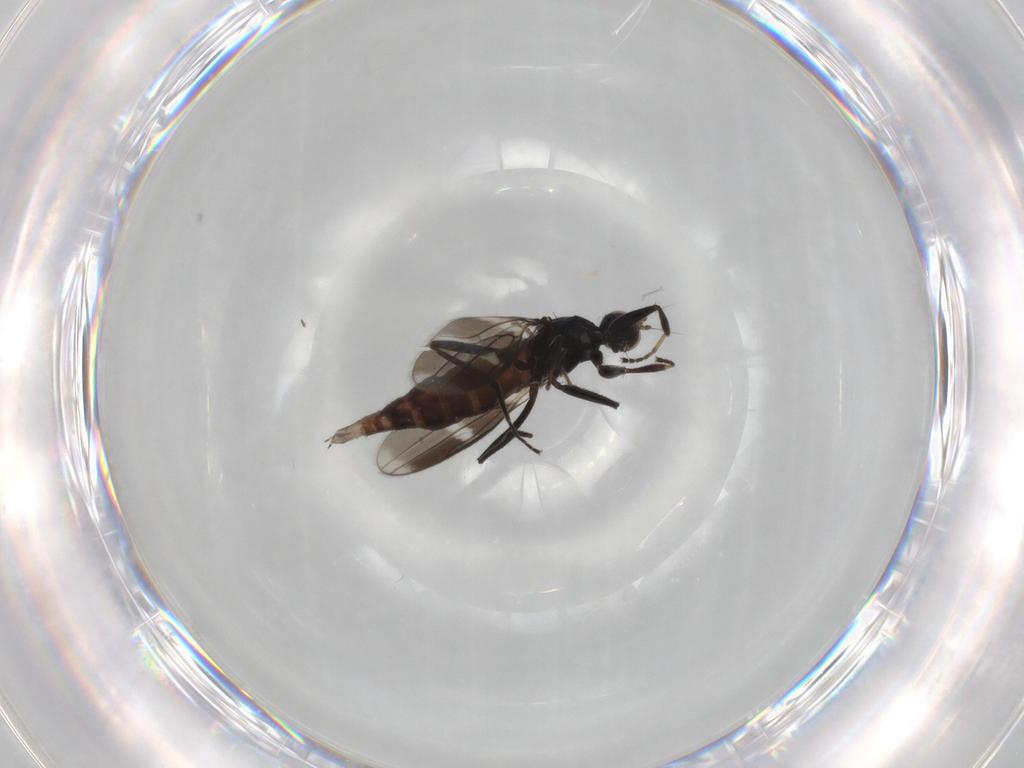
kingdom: Animalia
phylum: Arthropoda
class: Insecta
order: Diptera
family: Hybotidae
